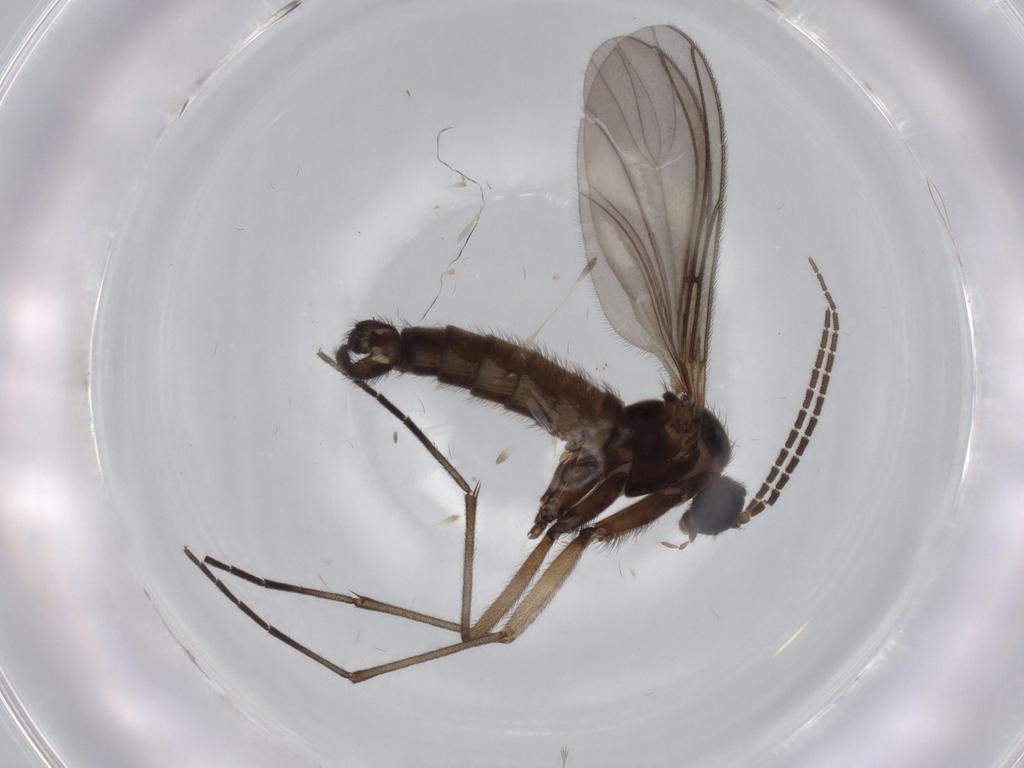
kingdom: Animalia
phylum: Arthropoda
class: Insecta
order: Diptera
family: Sciaridae
